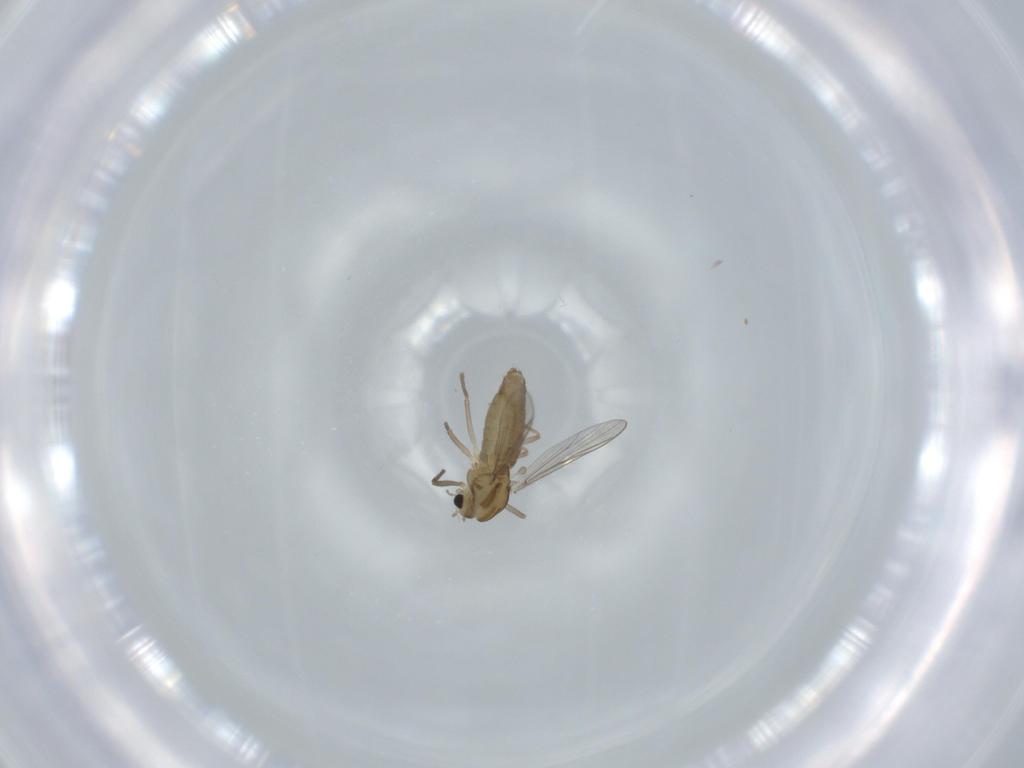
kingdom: Animalia
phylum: Arthropoda
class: Insecta
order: Diptera
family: Chironomidae
